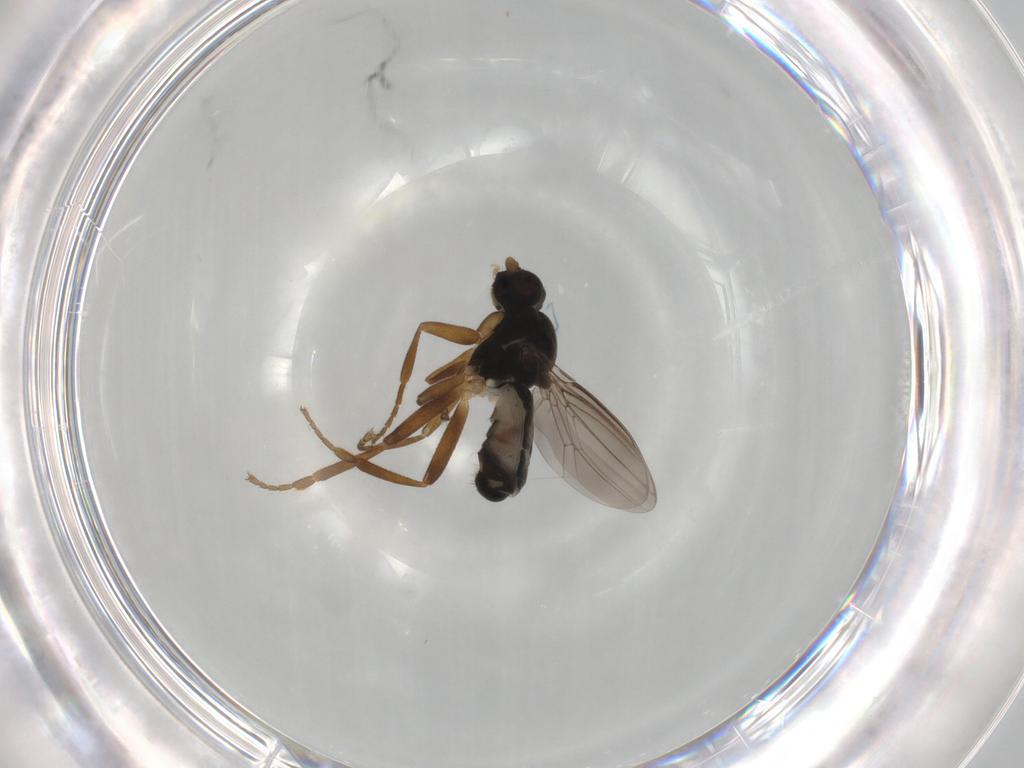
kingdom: Animalia
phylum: Arthropoda
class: Insecta
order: Diptera
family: Sphaeroceridae
